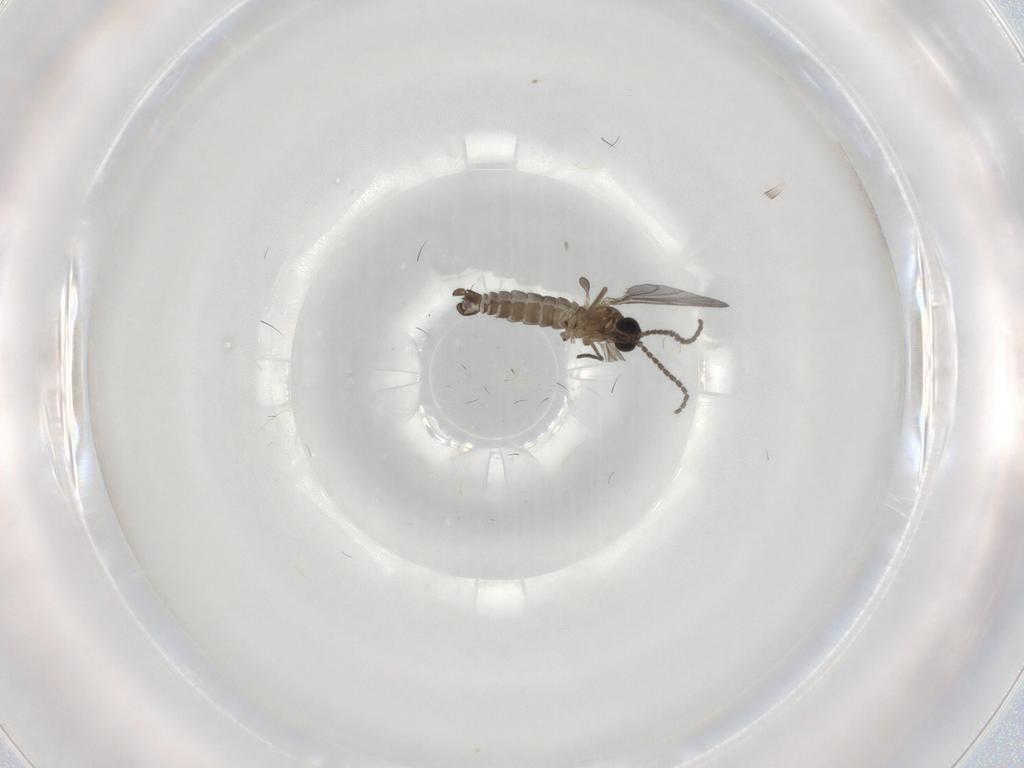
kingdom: Animalia
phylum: Arthropoda
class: Insecta
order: Diptera
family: Sciaridae
